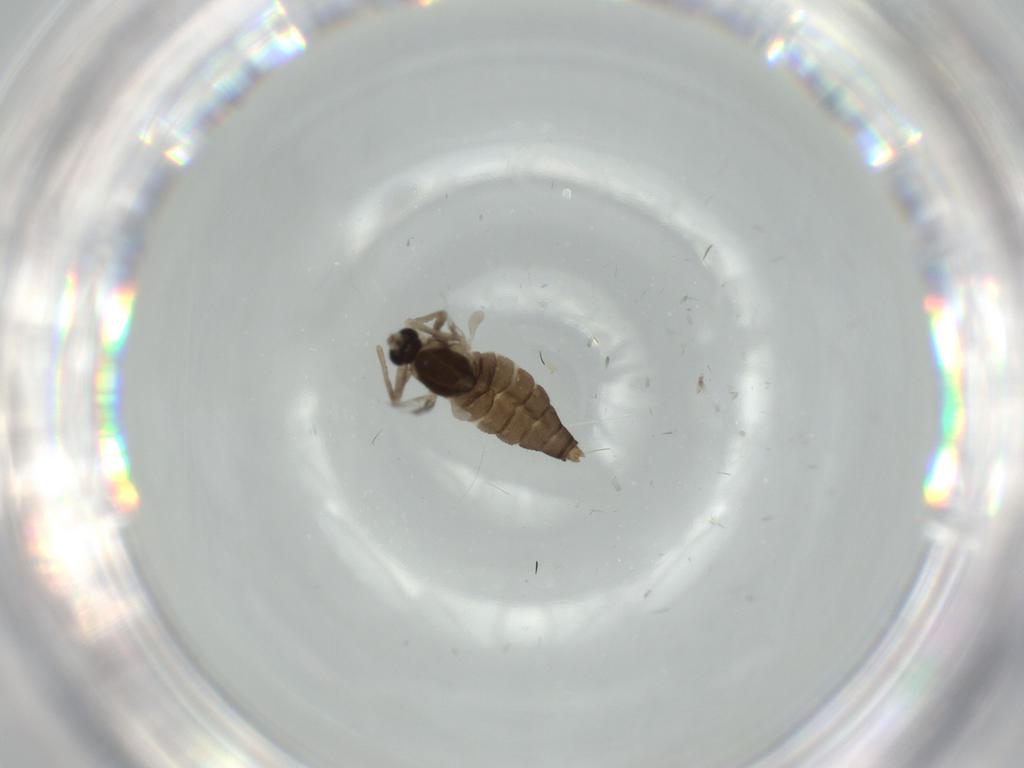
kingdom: Animalia
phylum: Arthropoda
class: Insecta
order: Diptera
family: Cecidomyiidae
